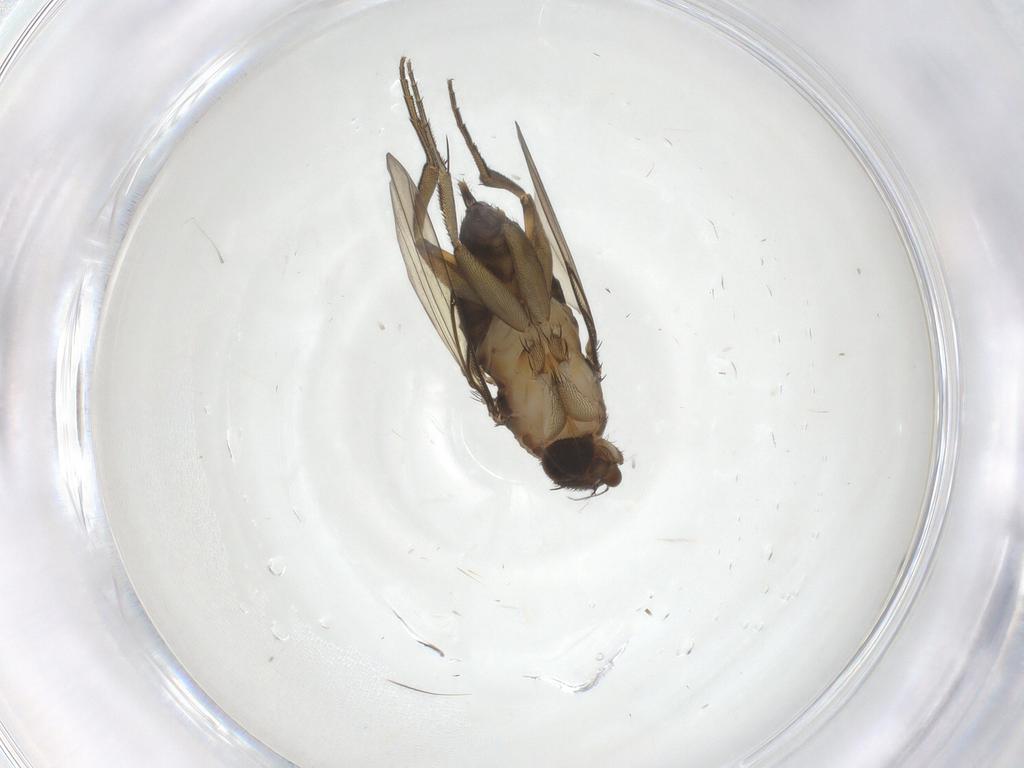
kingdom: Animalia
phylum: Arthropoda
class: Insecta
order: Diptera
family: Phoridae
